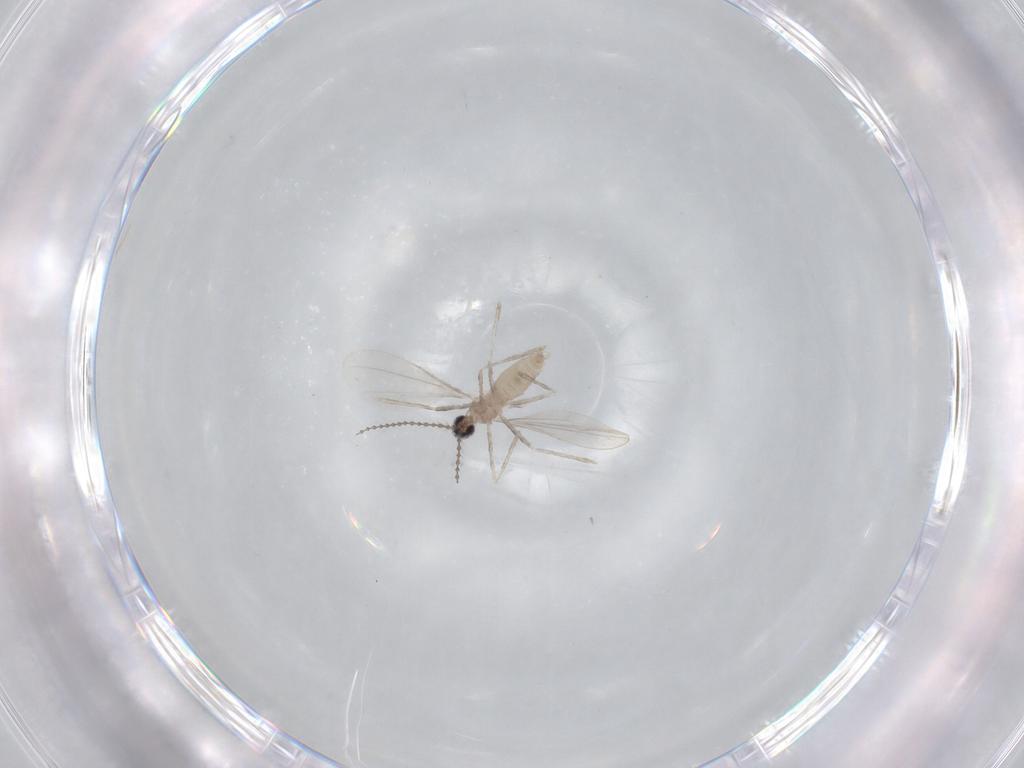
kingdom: Animalia
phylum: Arthropoda
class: Insecta
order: Diptera
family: Cecidomyiidae
